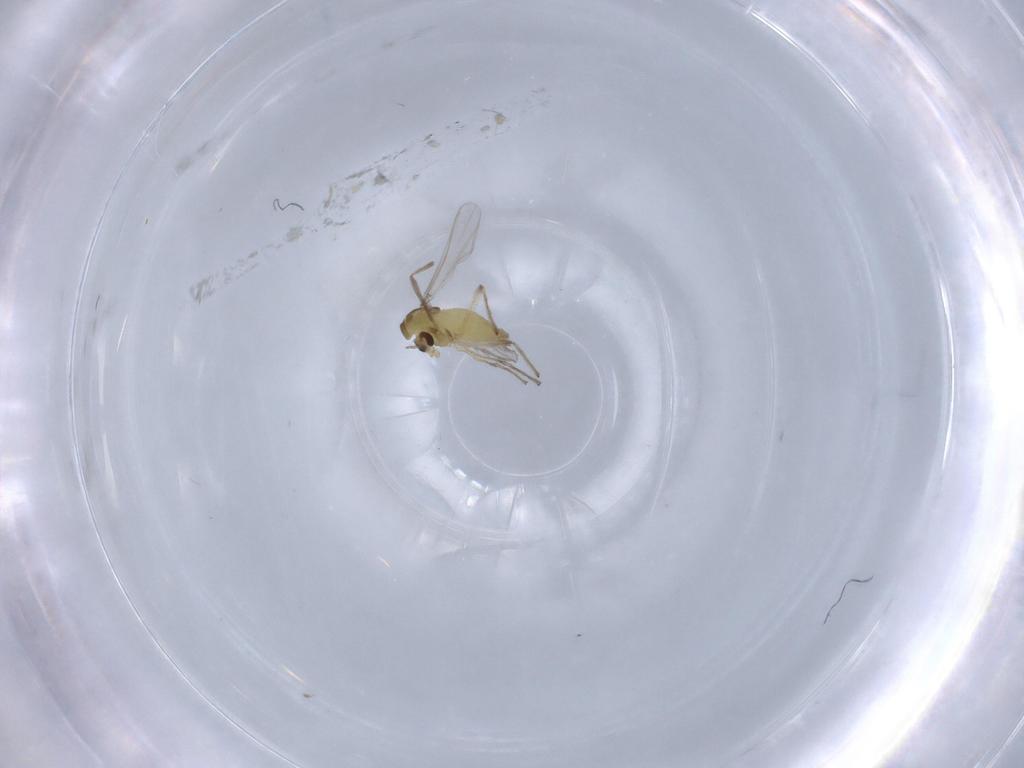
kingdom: Animalia
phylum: Arthropoda
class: Insecta
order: Diptera
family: Chironomidae
